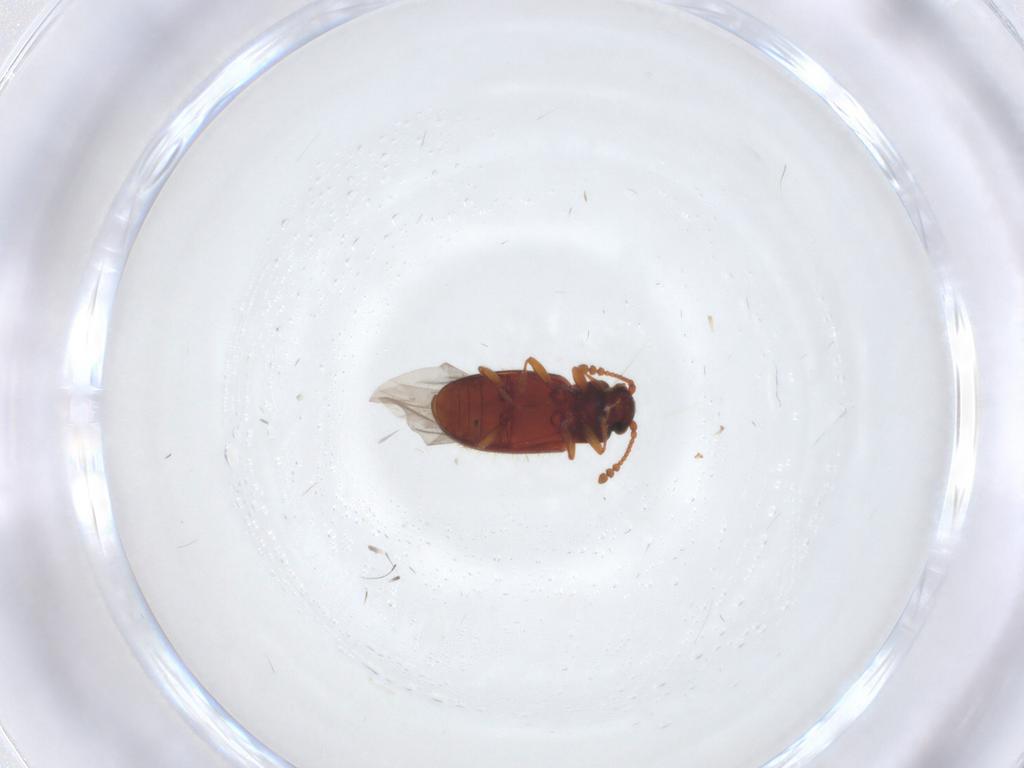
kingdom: Animalia
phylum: Arthropoda
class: Insecta
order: Coleoptera
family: Cryptophagidae
